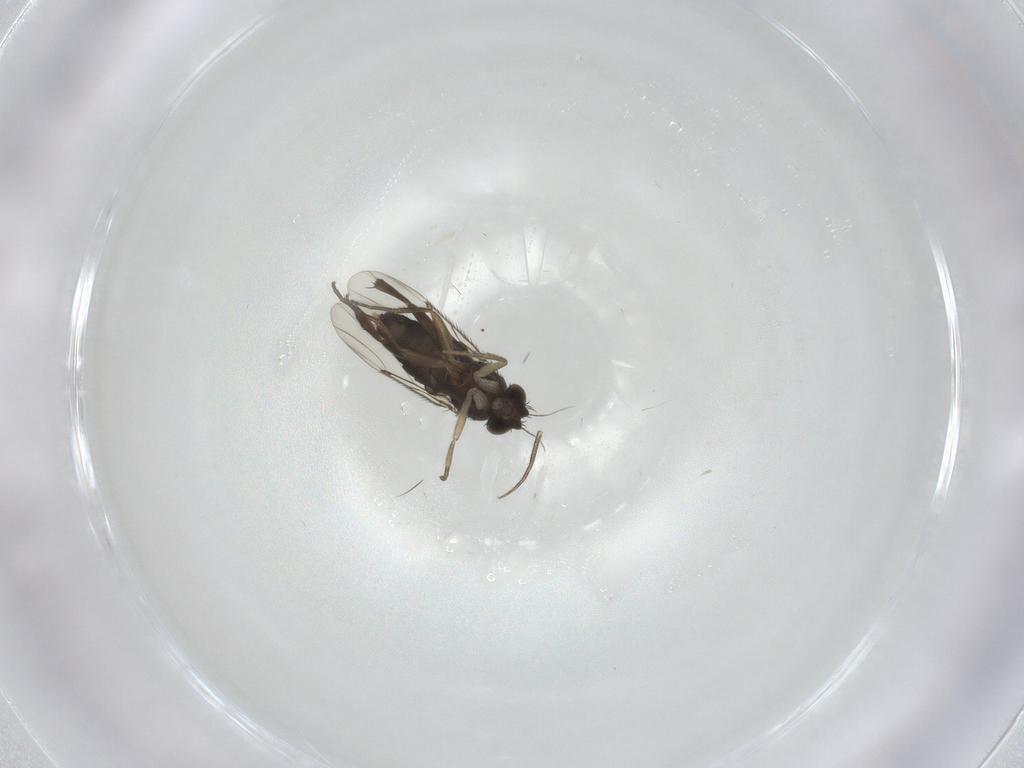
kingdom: Animalia
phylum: Arthropoda
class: Insecta
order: Diptera
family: Phoridae
